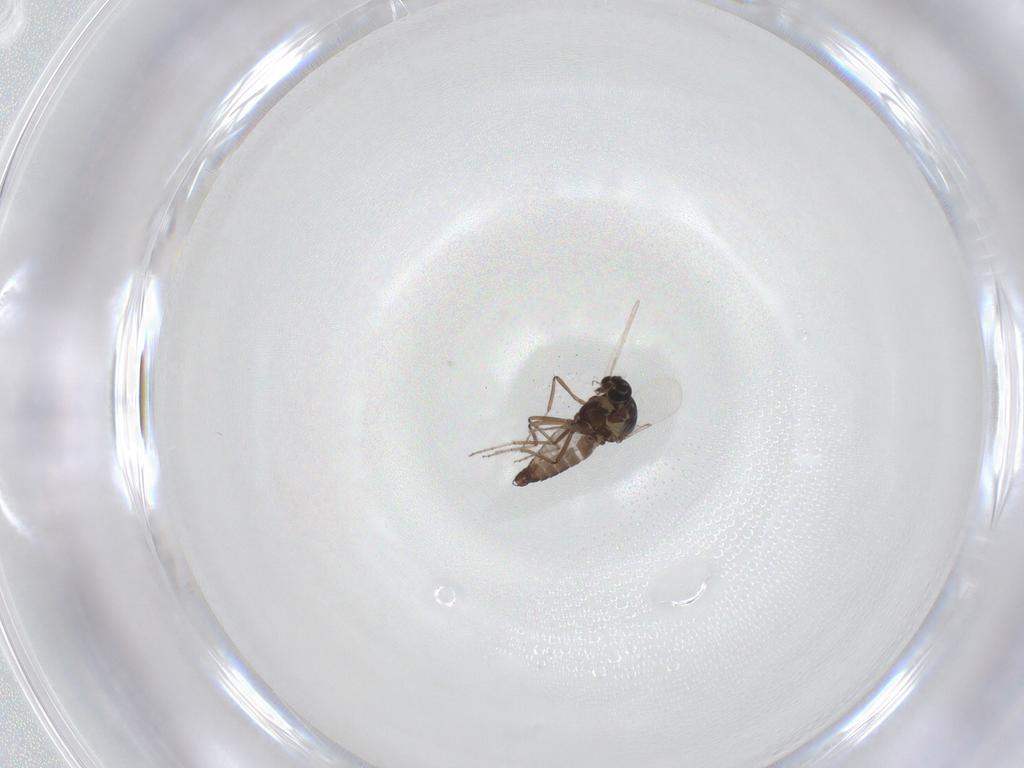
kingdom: Animalia
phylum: Arthropoda
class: Insecta
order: Diptera
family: Ceratopogonidae
